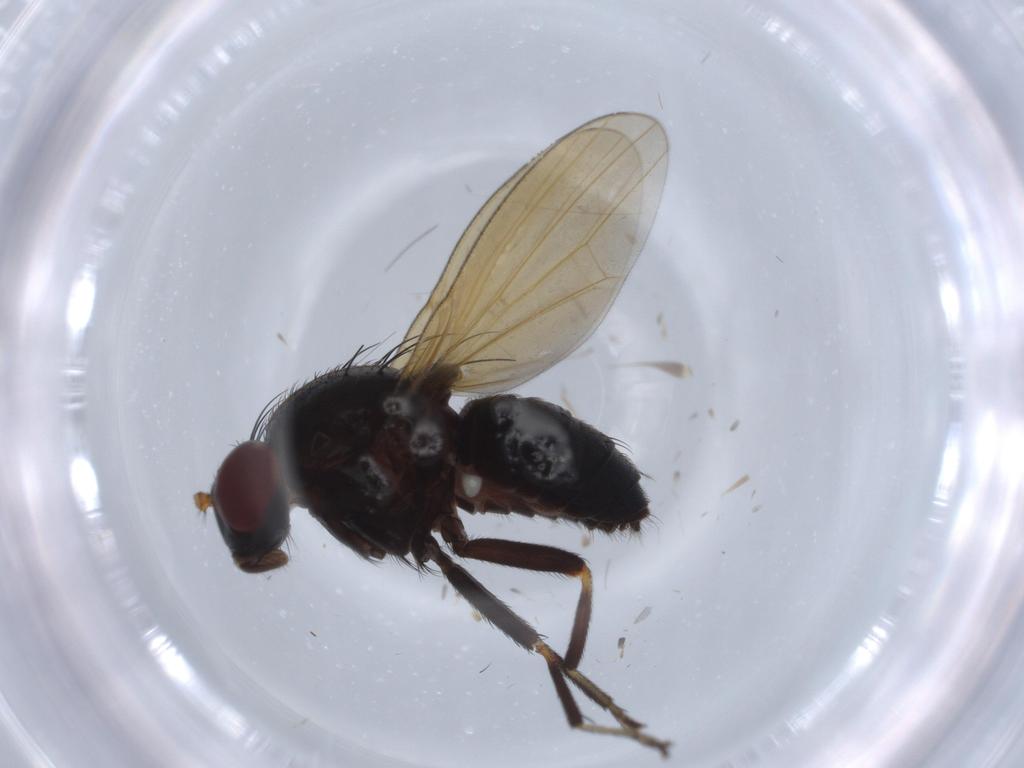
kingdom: Animalia
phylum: Arthropoda
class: Insecta
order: Diptera
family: Lauxaniidae
